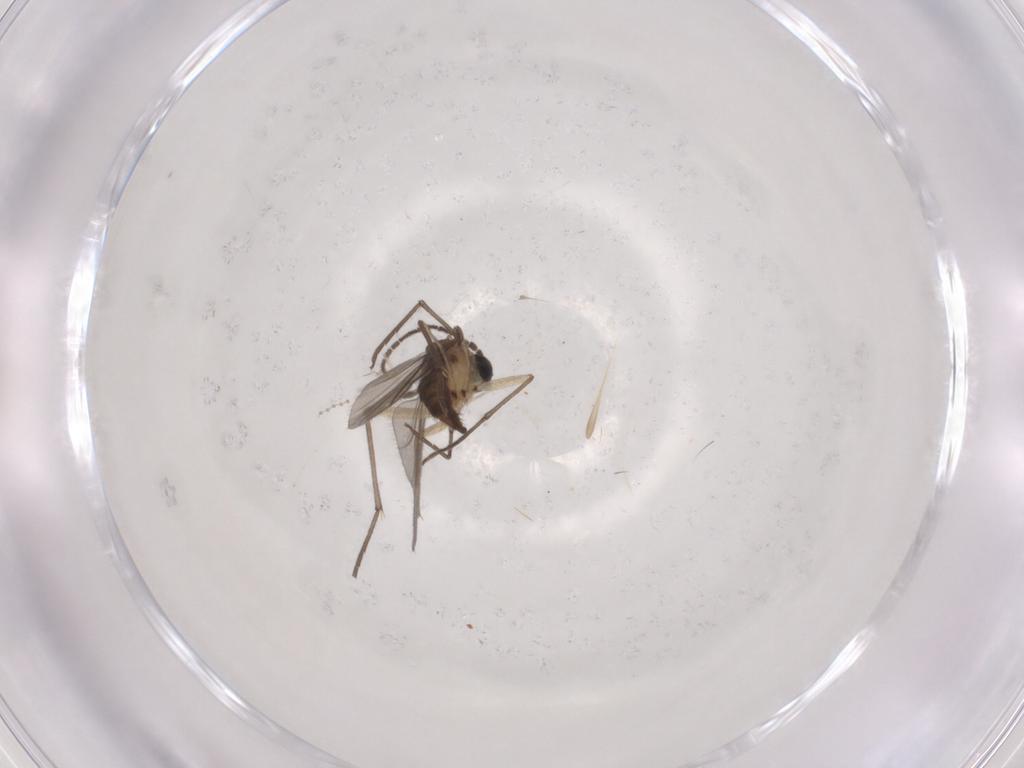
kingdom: Animalia
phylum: Arthropoda
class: Insecta
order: Diptera
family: Sciaridae
